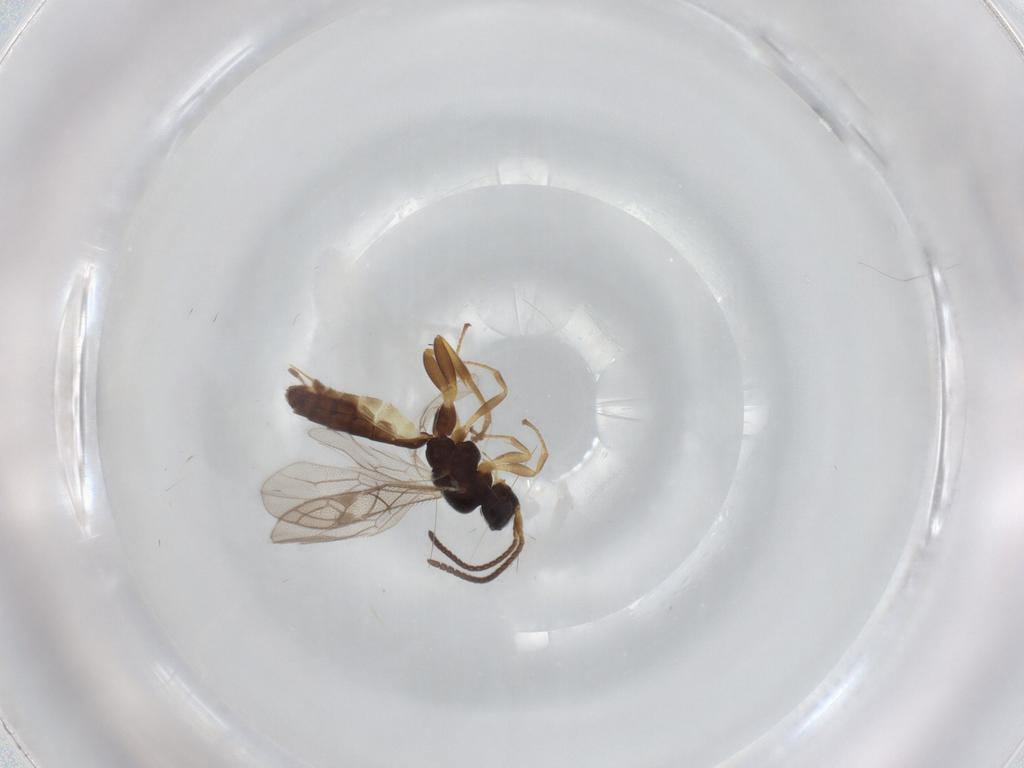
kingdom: Animalia
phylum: Arthropoda
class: Insecta
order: Hymenoptera
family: Ichneumonidae
